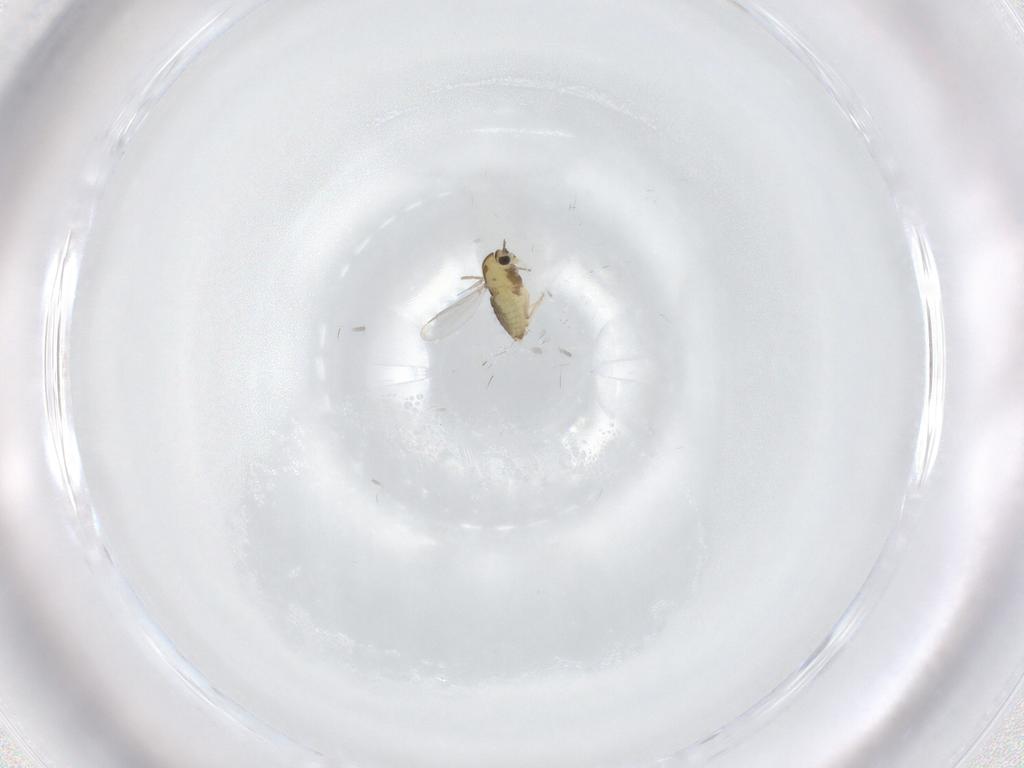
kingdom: Animalia
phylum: Arthropoda
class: Insecta
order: Diptera
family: Chironomidae
